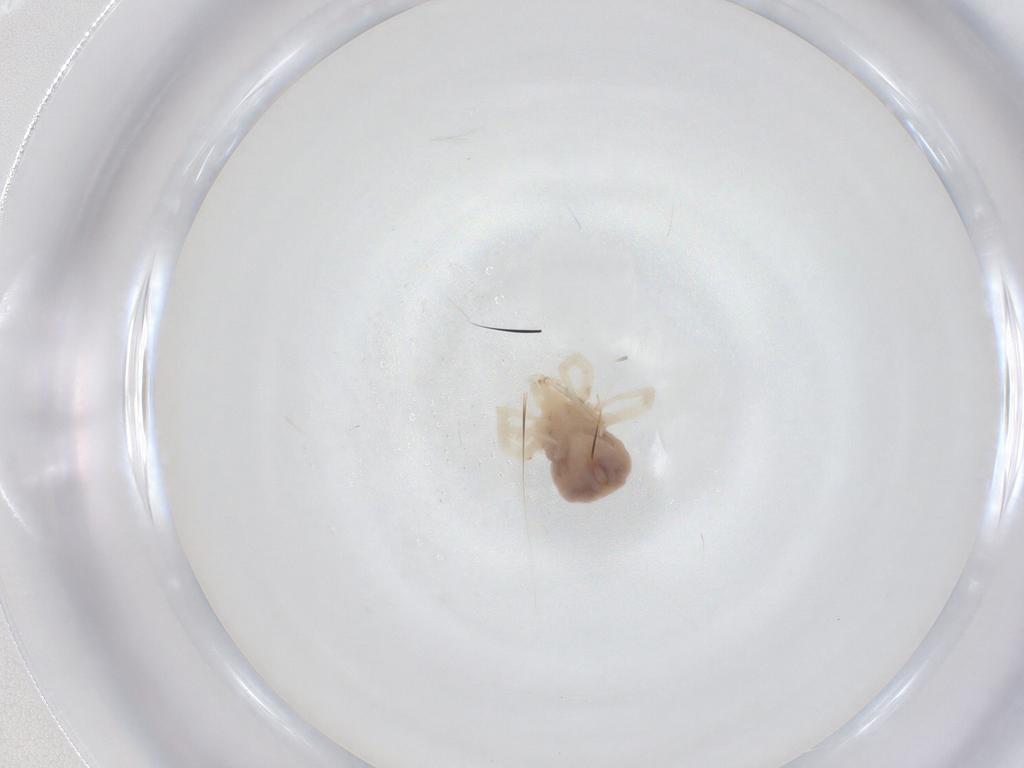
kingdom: Animalia
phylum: Arthropoda
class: Arachnida
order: Trombidiformes
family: Anystidae
